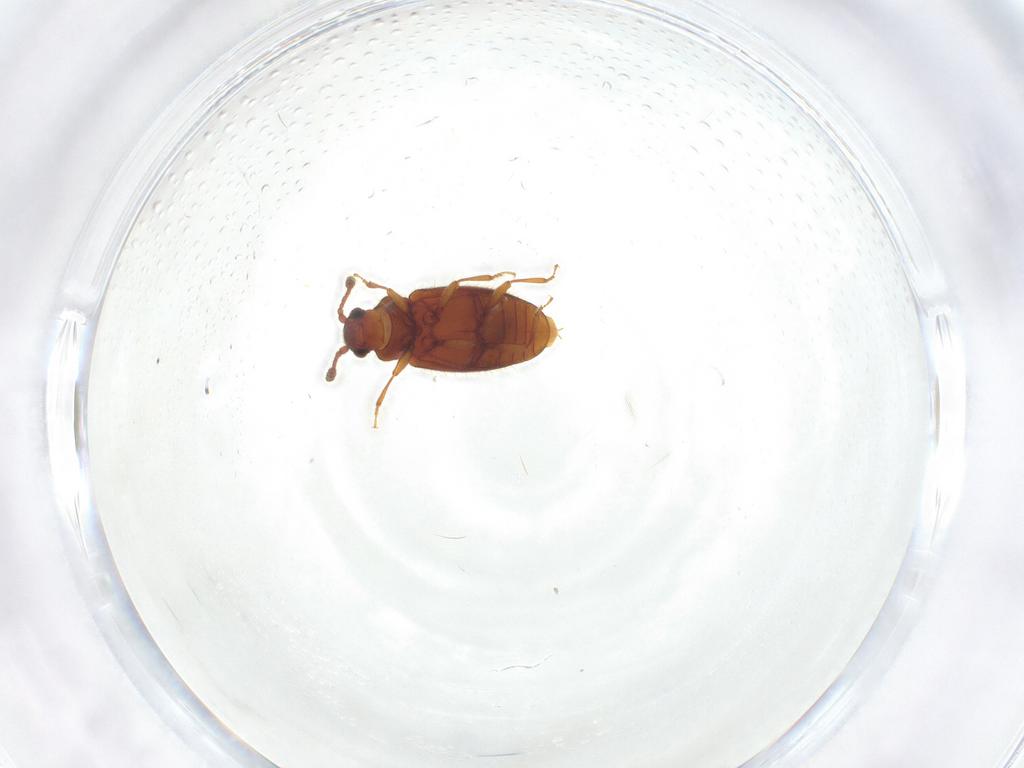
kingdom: Animalia
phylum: Arthropoda
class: Insecta
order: Coleoptera
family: Cryptophagidae
